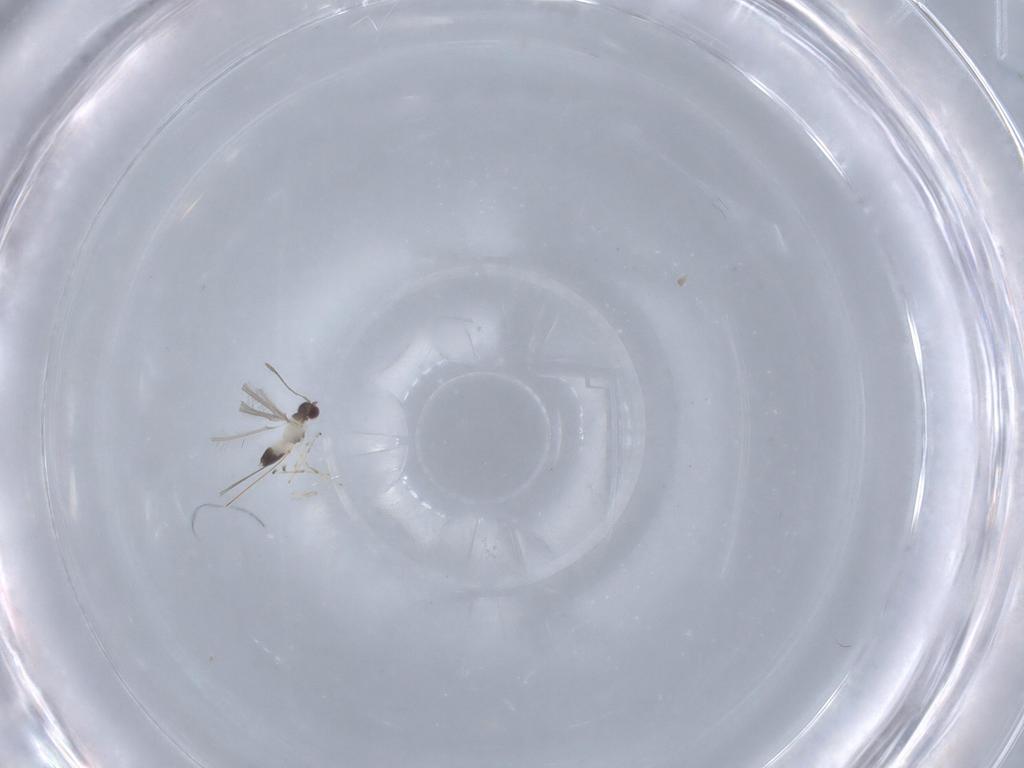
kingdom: Animalia
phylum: Arthropoda
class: Insecta
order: Hymenoptera
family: Mymaridae
